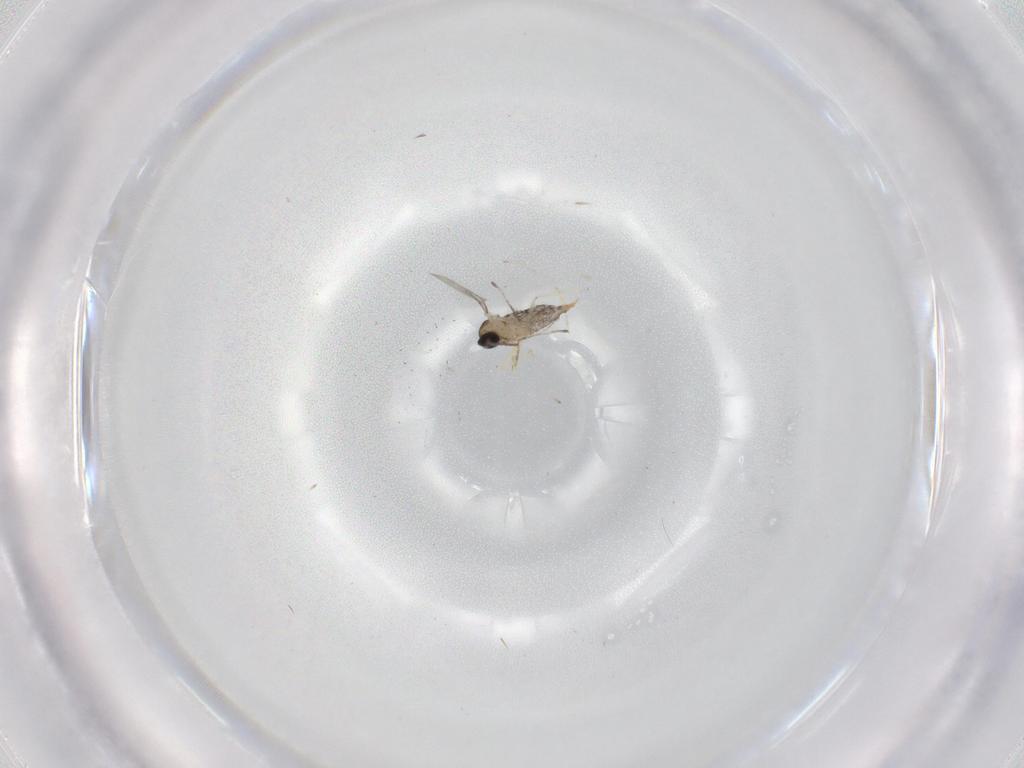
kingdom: Animalia
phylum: Arthropoda
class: Insecta
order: Diptera
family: Cecidomyiidae
